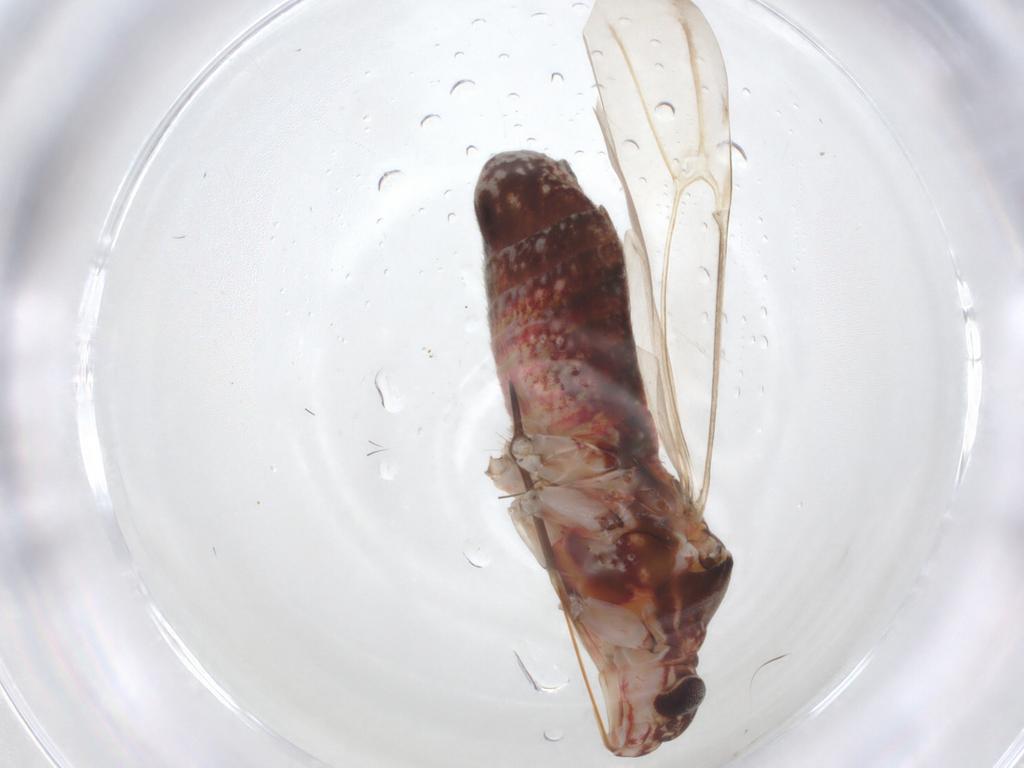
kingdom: Animalia
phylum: Arthropoda
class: Insecta
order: Hemiptera
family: Miridae
